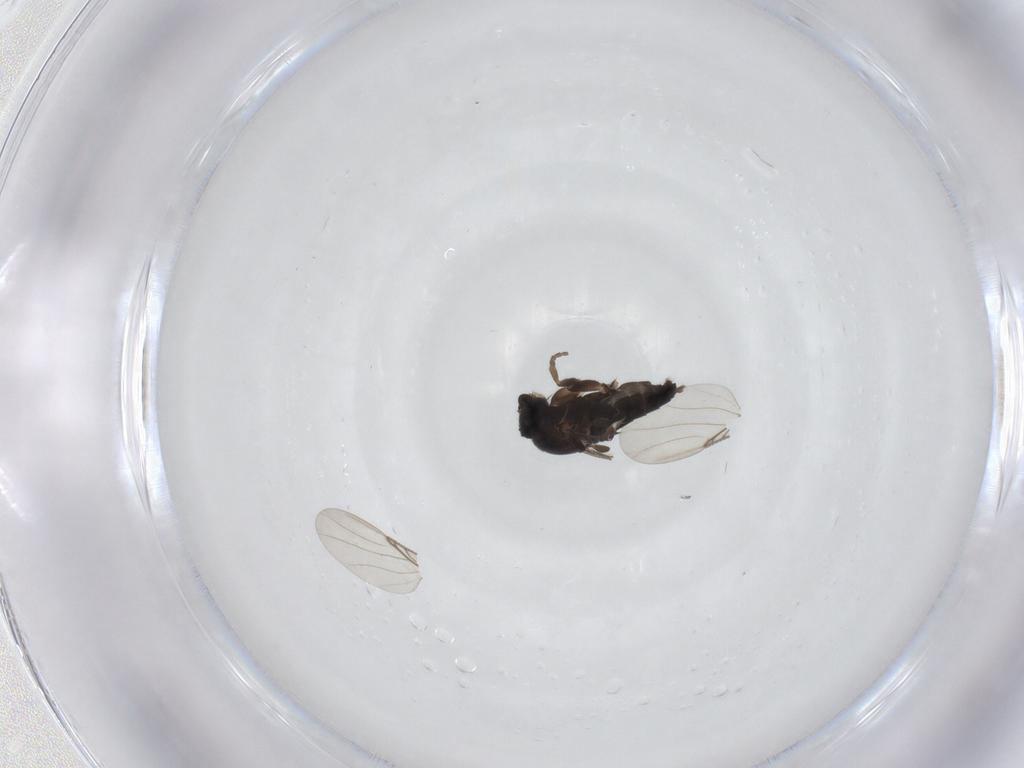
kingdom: Animalia
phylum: Arthropoda
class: Insecta
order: Diptera
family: Phoridae
